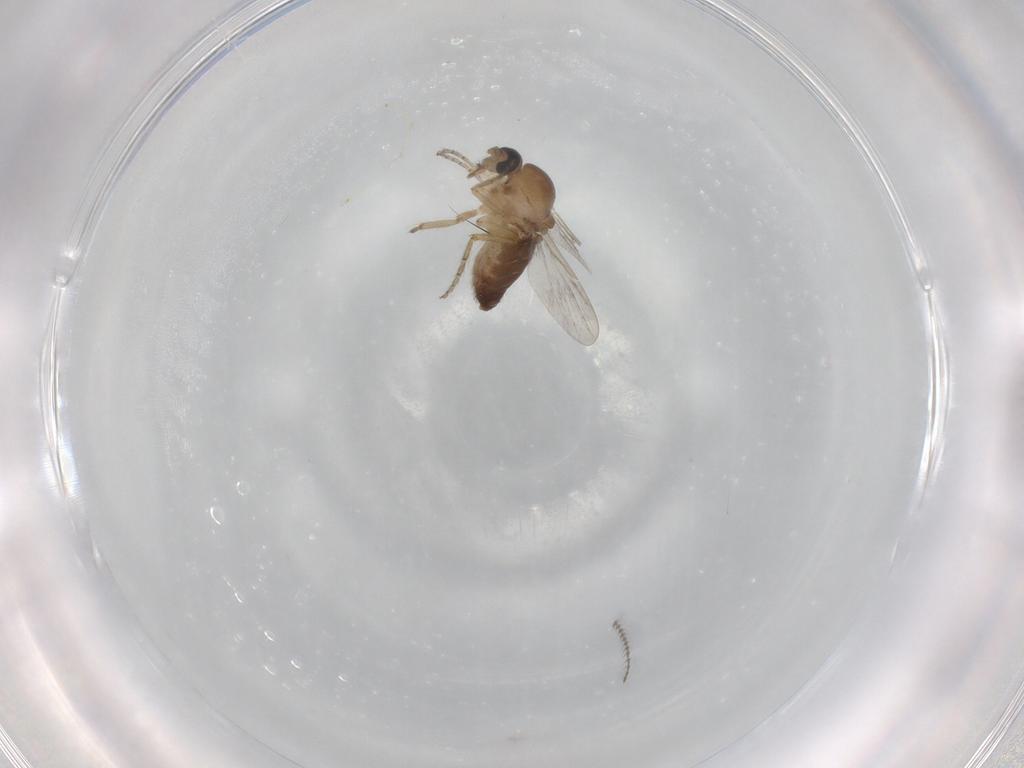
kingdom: Animalia
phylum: Arthropoda
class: Insecta
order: Diptera
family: Ceratopogonidae
